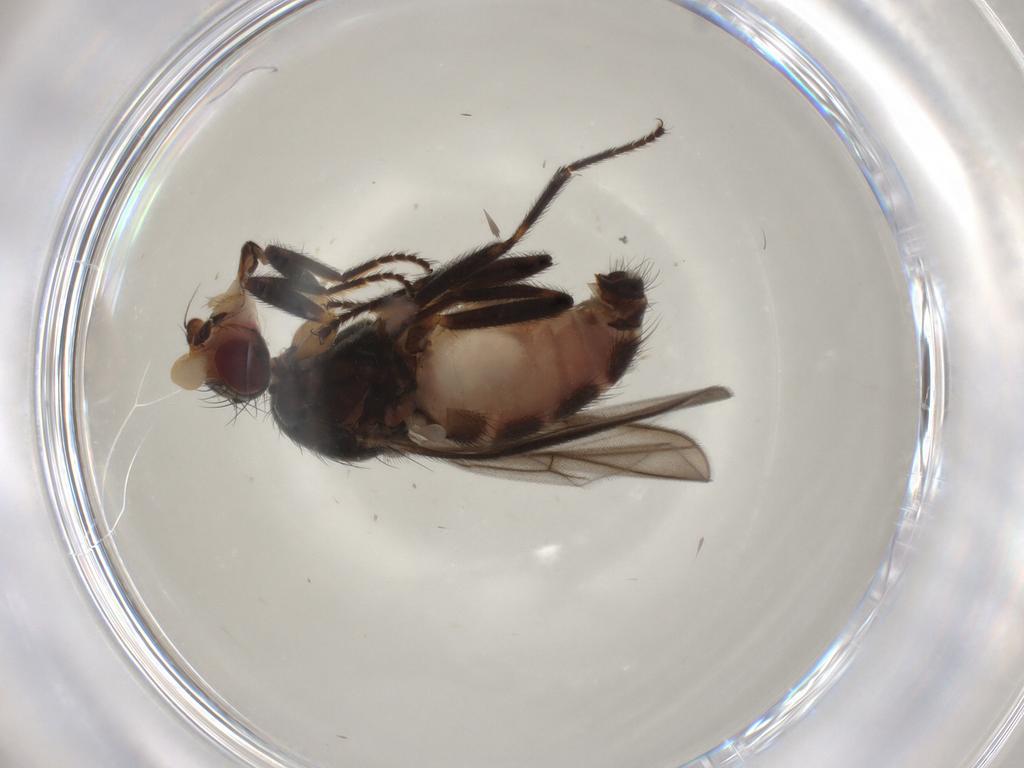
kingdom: Animalia
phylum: Arthropoda
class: Insecta
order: Diptera
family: Chloropidae
